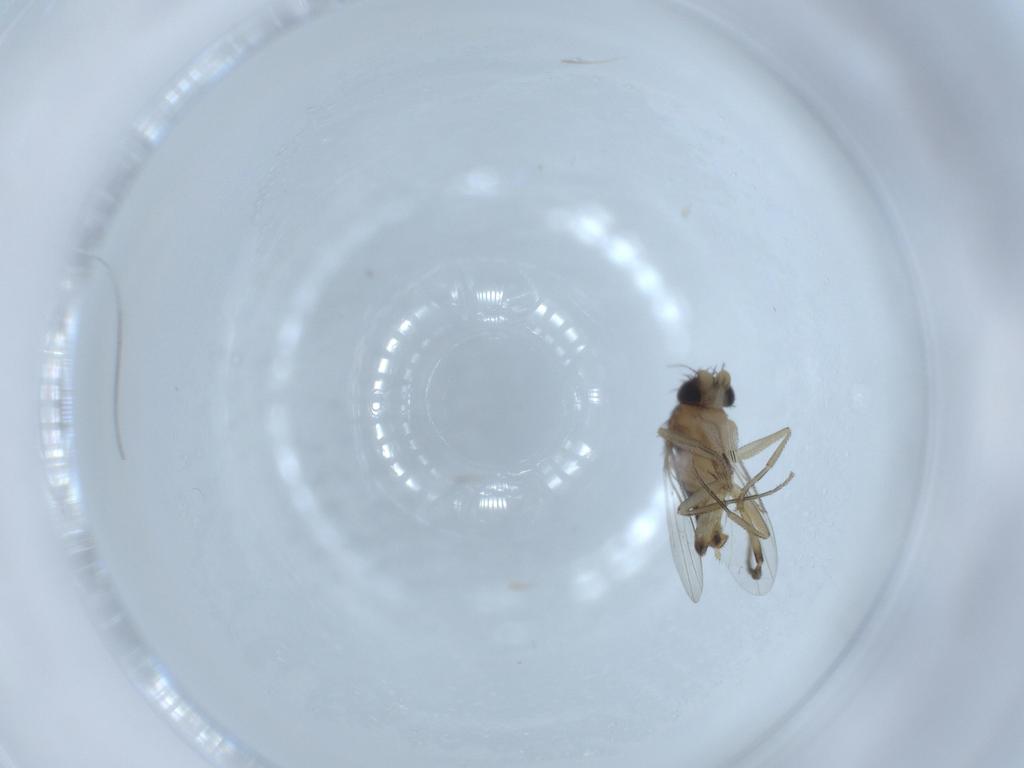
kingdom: Animalia
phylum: Arthropoda
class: Insecta
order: Diptera
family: Phoridae
